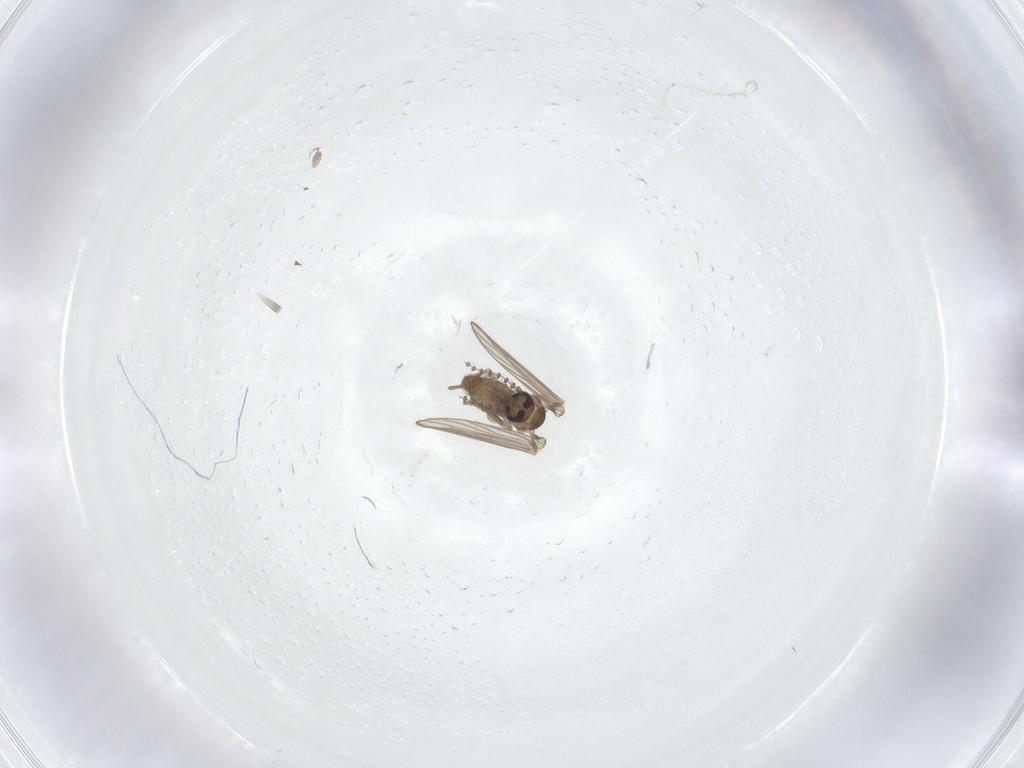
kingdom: Animalia
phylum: Arthropoda
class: Insecta
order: Diptera
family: Psychodidae
